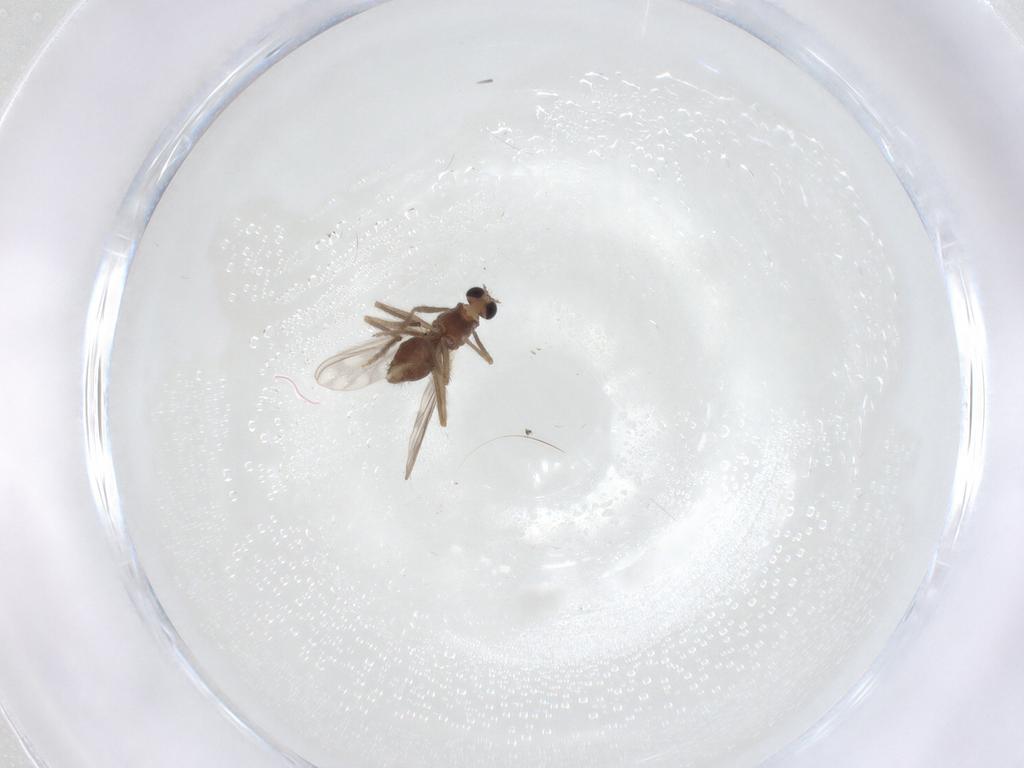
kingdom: Animalia
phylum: Arthropoda
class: Insecta
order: Diptera
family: Chironomidae
